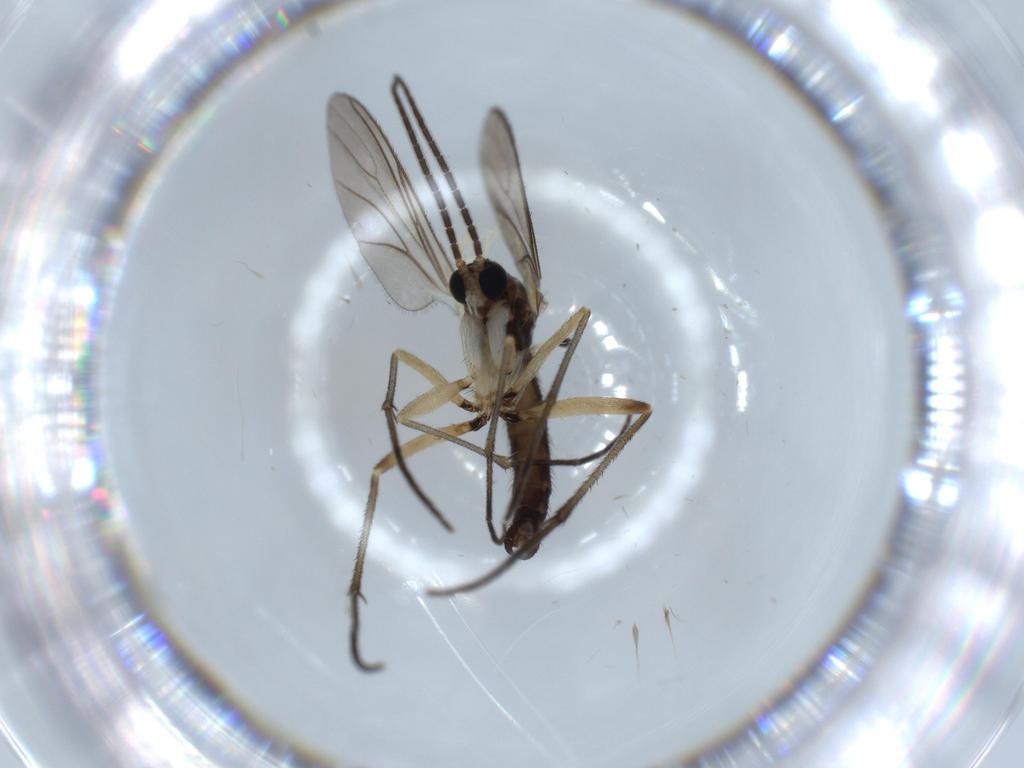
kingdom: Animalia
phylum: Arthropoda
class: Insecta
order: Diptera
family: Sciaridae
